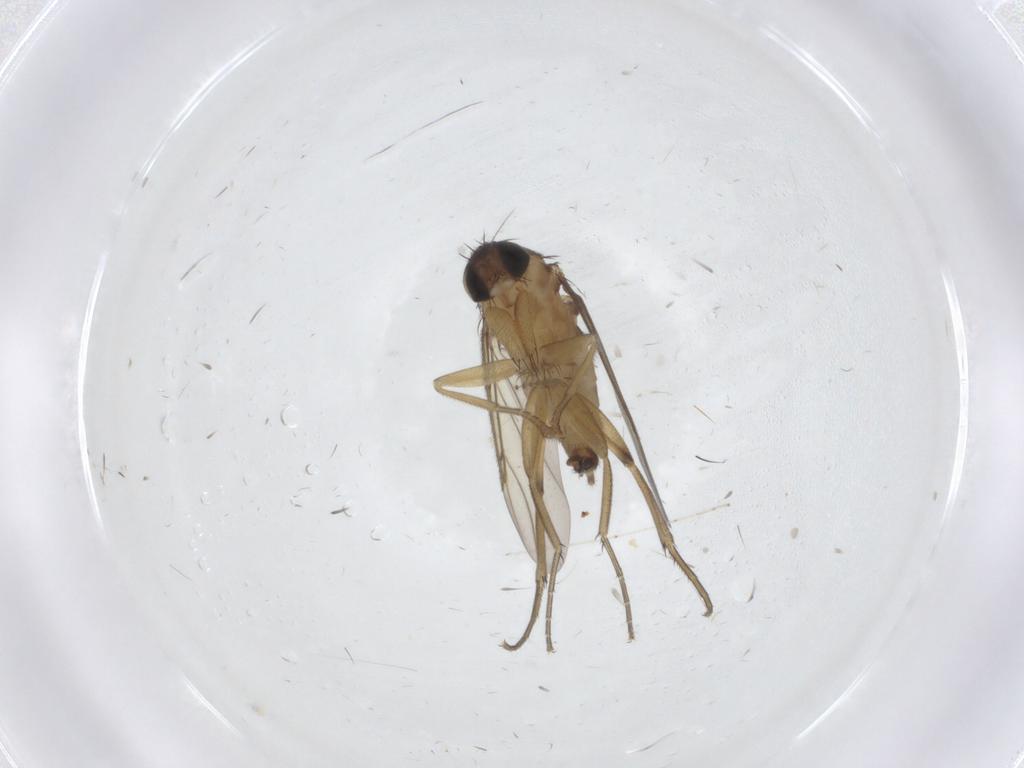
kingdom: Animalia
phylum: Arthropoda
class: Insecta
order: Diptera
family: Phoridae
